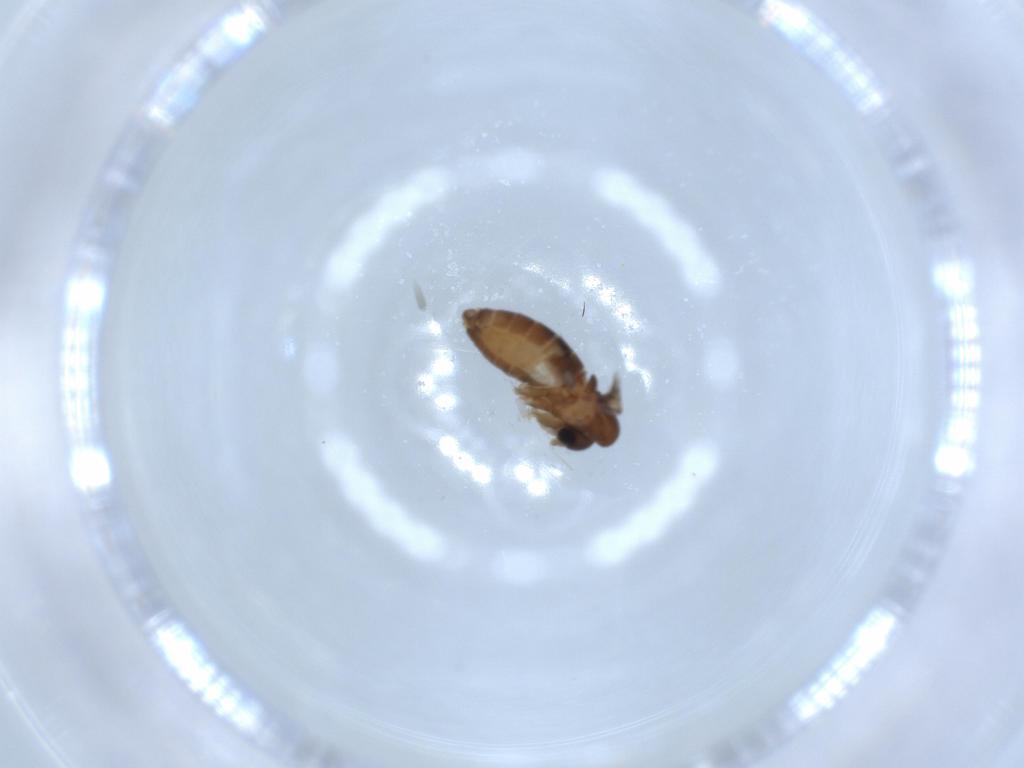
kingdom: Animalia
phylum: Arthropoda
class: Insecta
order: Diptera
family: Psychodidae
